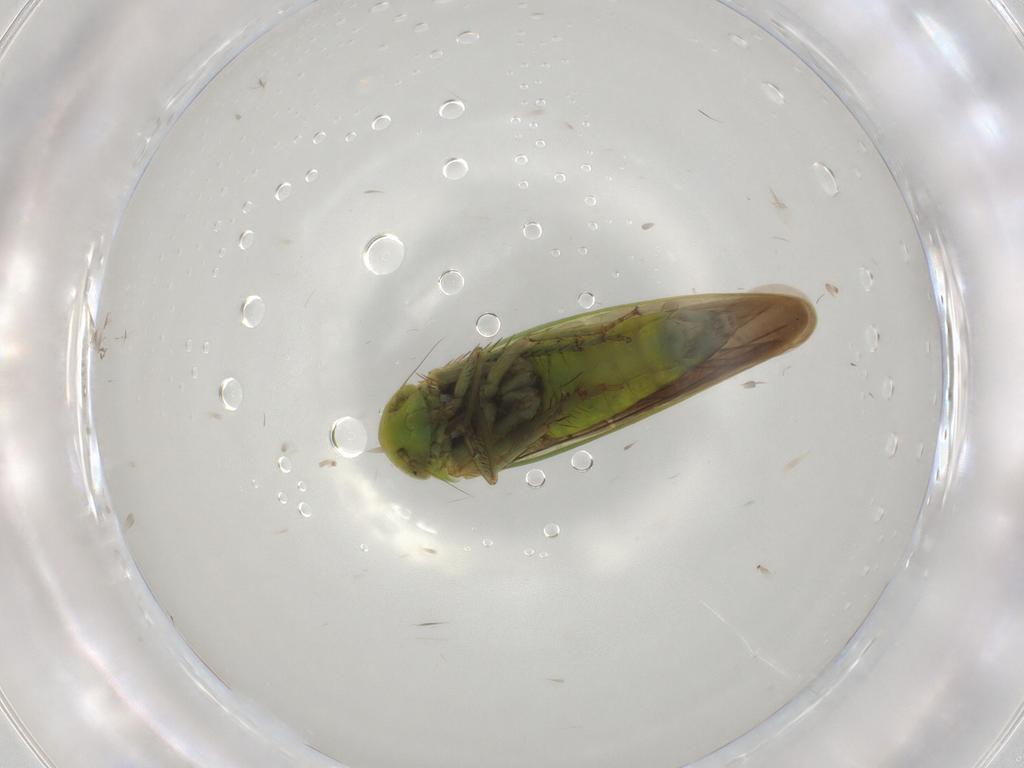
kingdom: Animalia
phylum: Arthropoda
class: Insecta
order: Hemiptera
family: Cicadellidae
